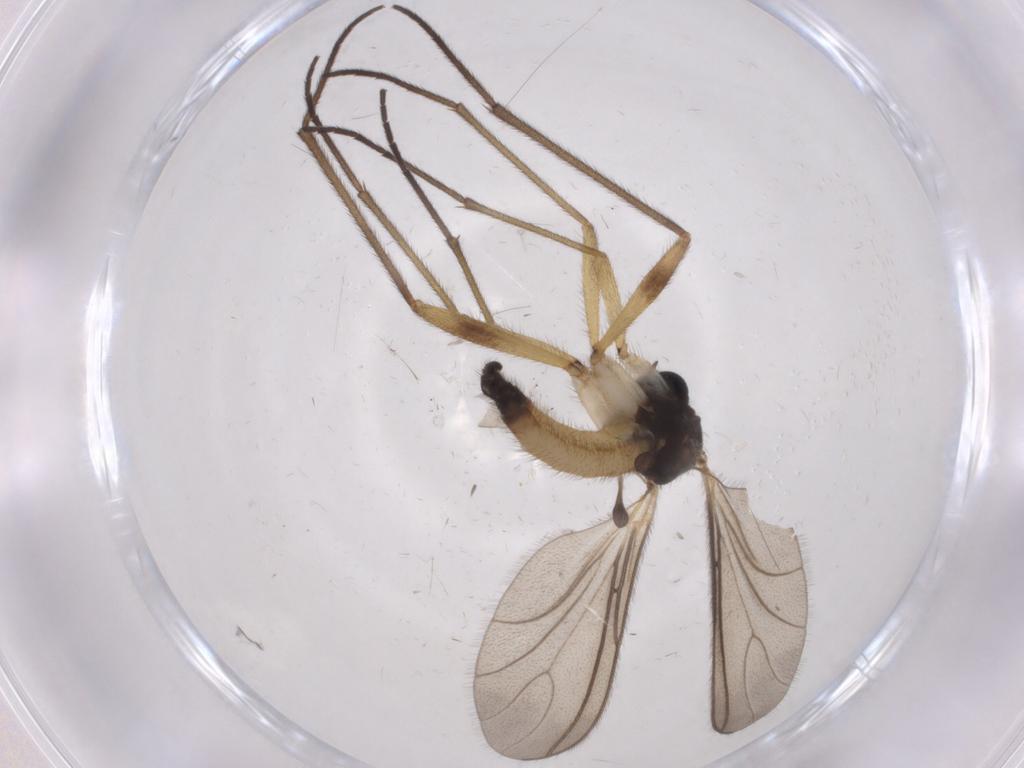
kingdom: Animalia
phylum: Arthropoda
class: Insecta
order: Diptera
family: Sciaridae
